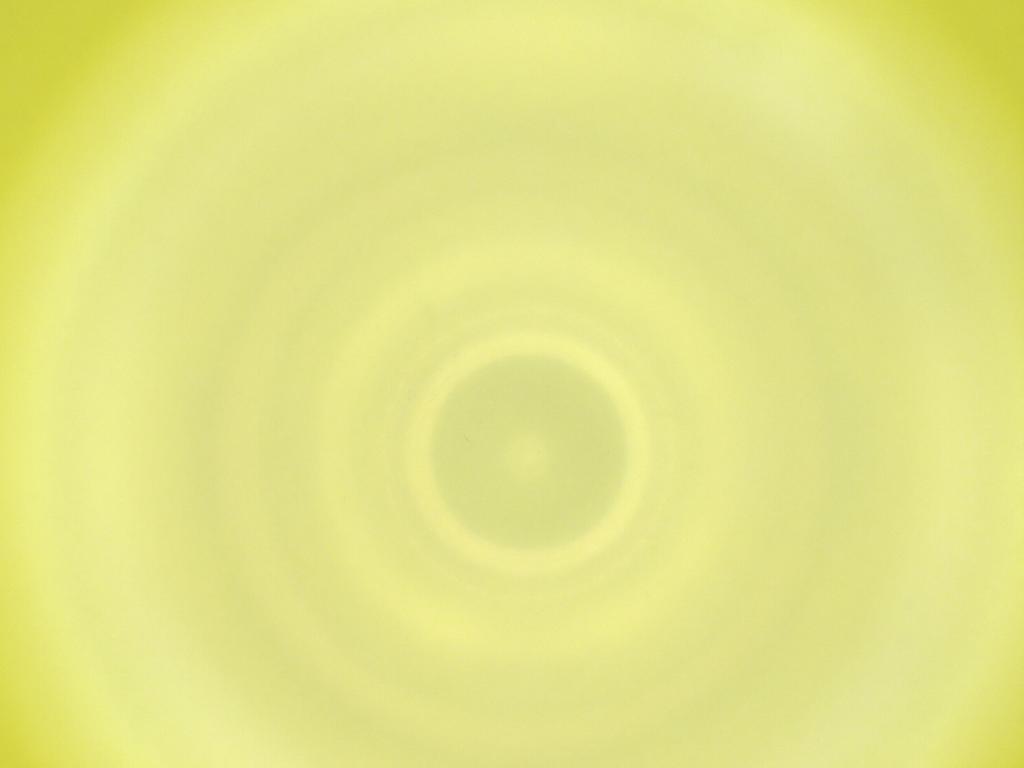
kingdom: Animalia
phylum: Arthropoda
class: Insecta
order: Diptera
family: Cecidomyiidae
